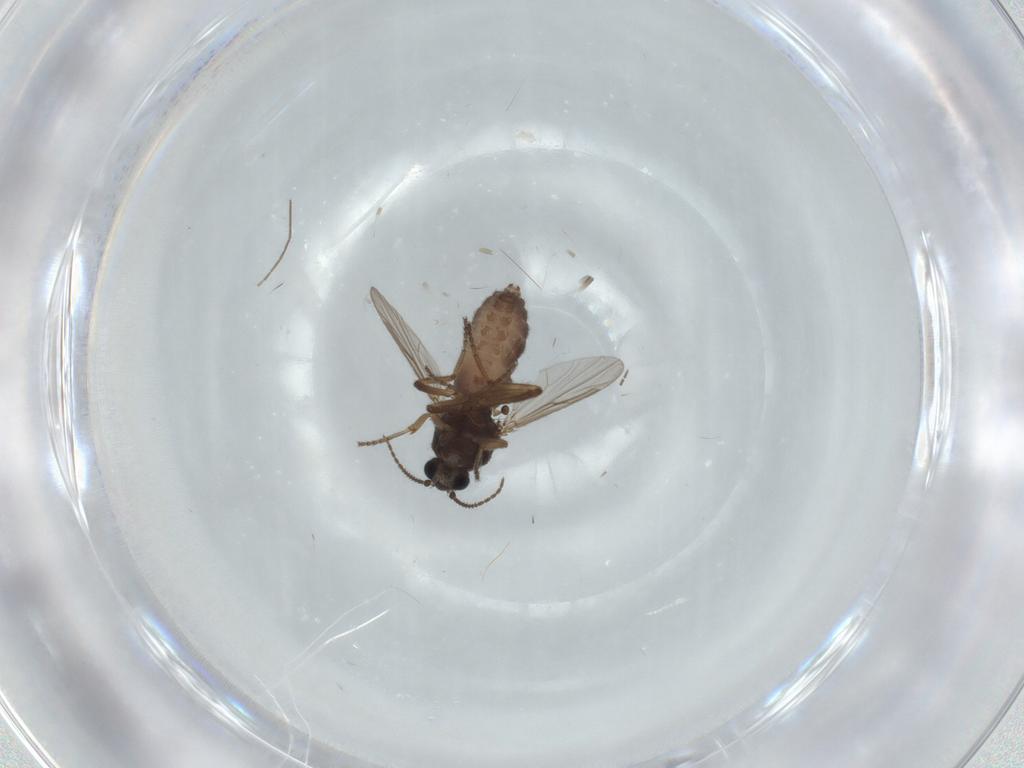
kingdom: Animalia
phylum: Arthropoda
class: Insecta
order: Diptera
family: Ceratopogonidae
